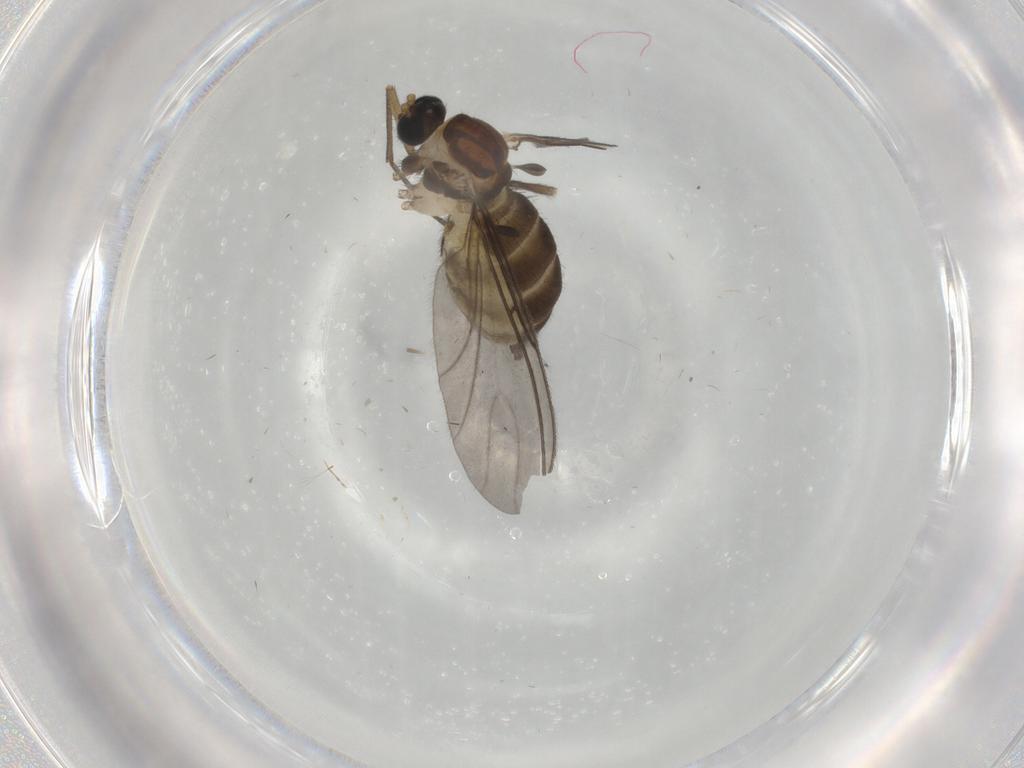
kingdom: Animalia
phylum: Arthropoda
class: Insecta
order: Diptera
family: Sciaridae
